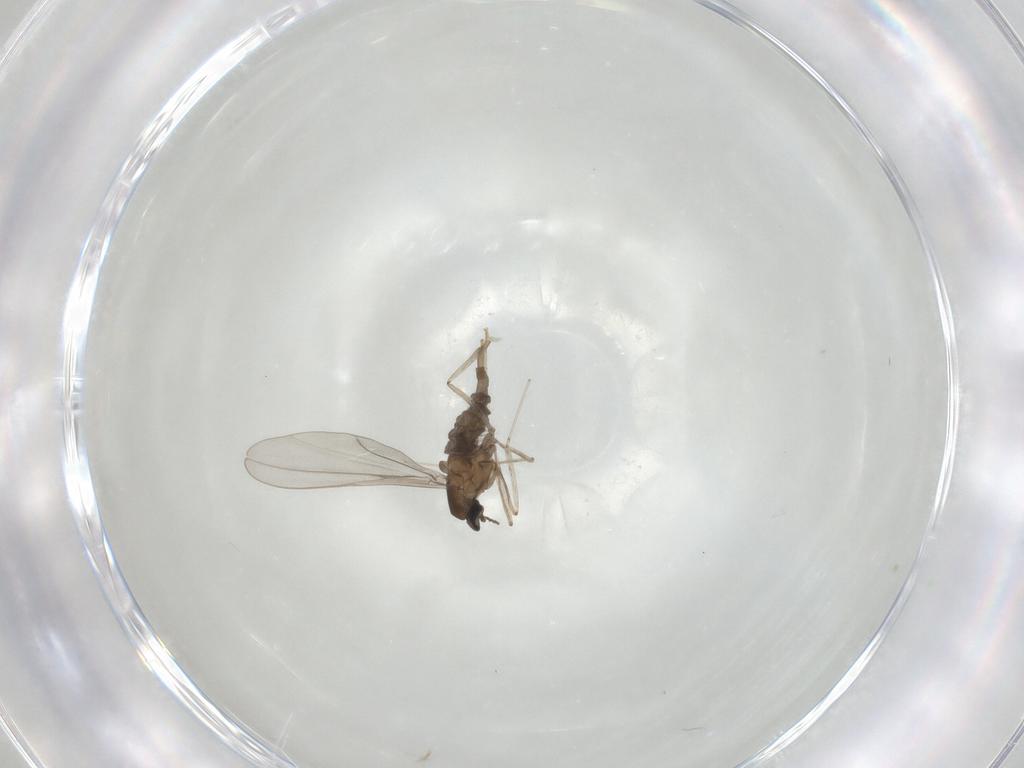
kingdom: Animalia
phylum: Arthropoda
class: Insecta
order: Diptera
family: Cecidomyiidae
